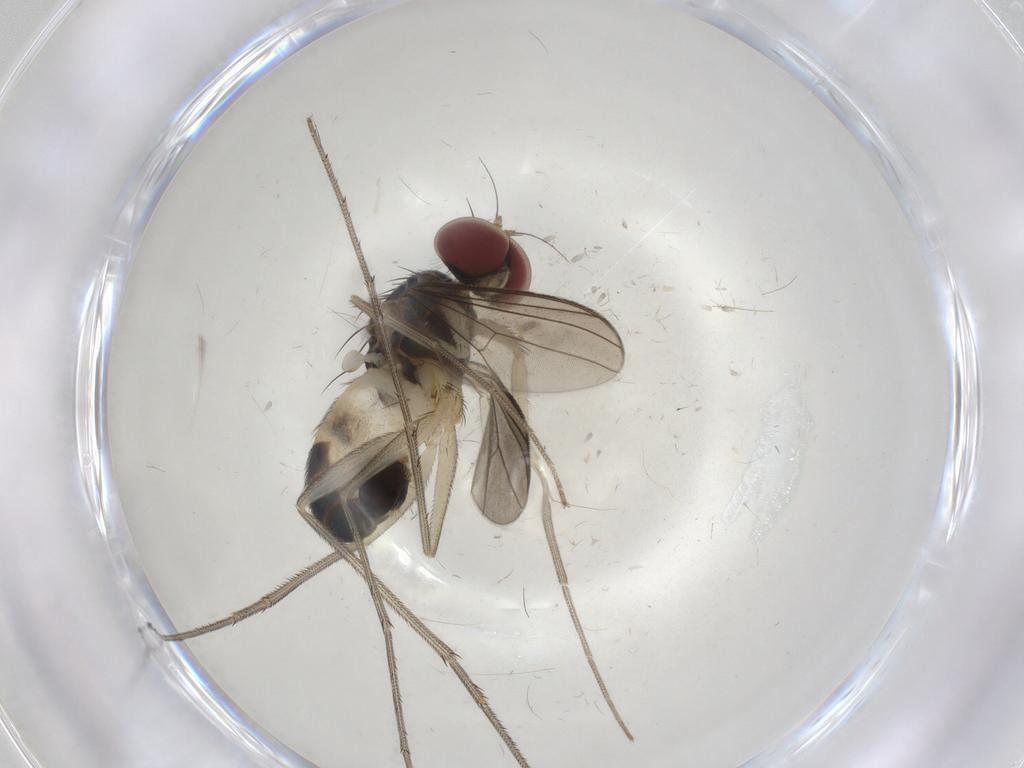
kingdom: Animalia
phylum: Arthropoda
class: Insecta
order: Diptera
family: Dolichopodidae
